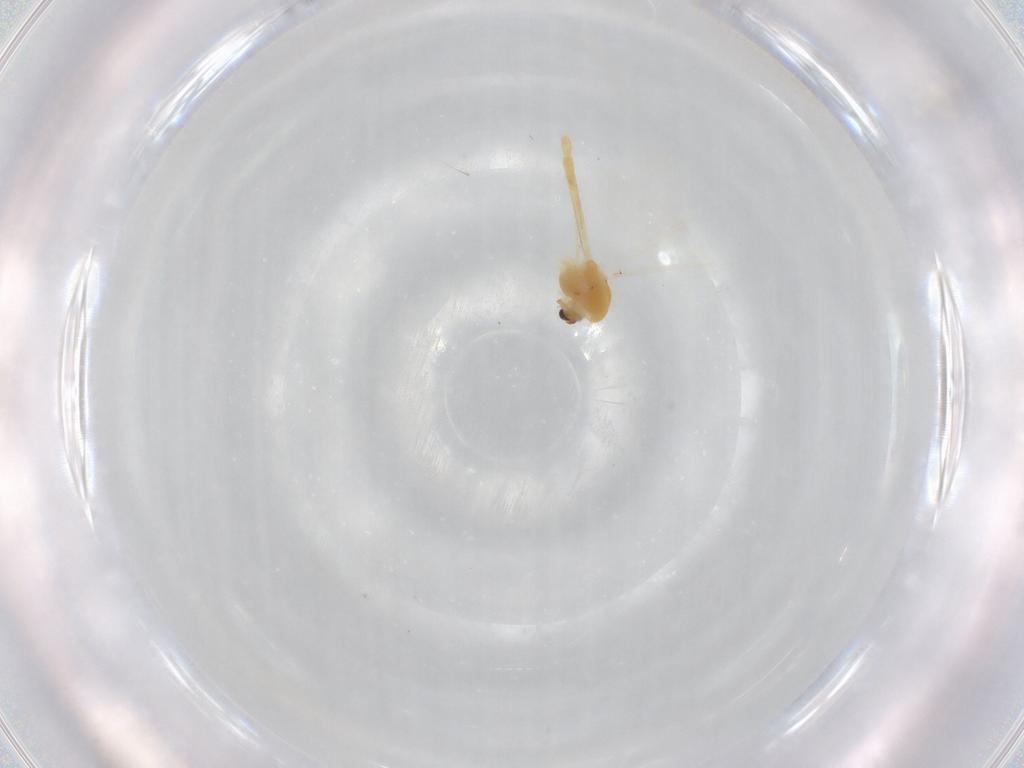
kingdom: Animalia
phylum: Arthropoda
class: Insecta
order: Diptera
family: Chironomidae
